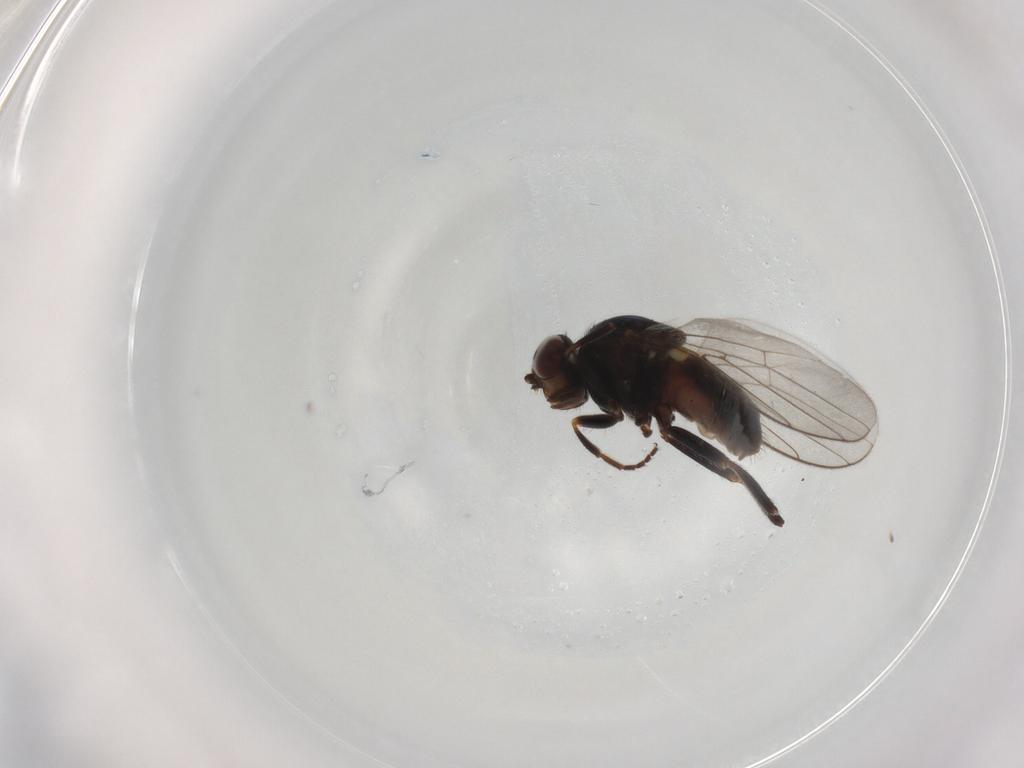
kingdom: Animalia
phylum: Arthropoda
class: Insecta
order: Diptera
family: Chloropidae
